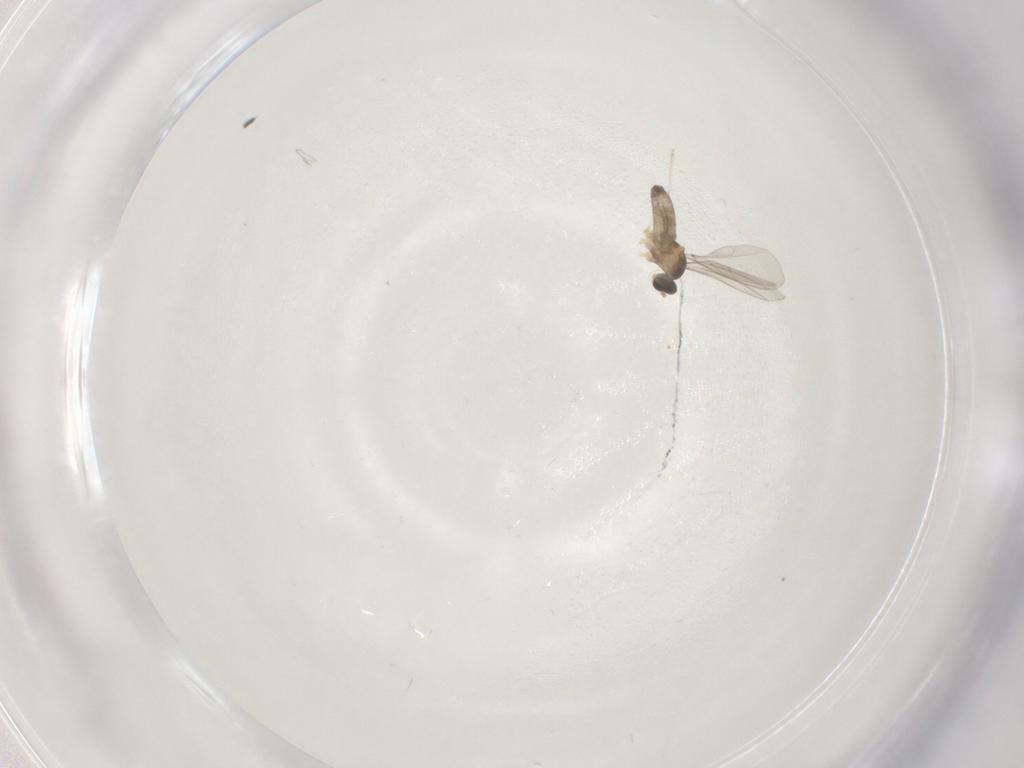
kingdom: Animalia
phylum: Arthropoda
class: Insecta
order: Diptera
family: Cecidomyiidae
